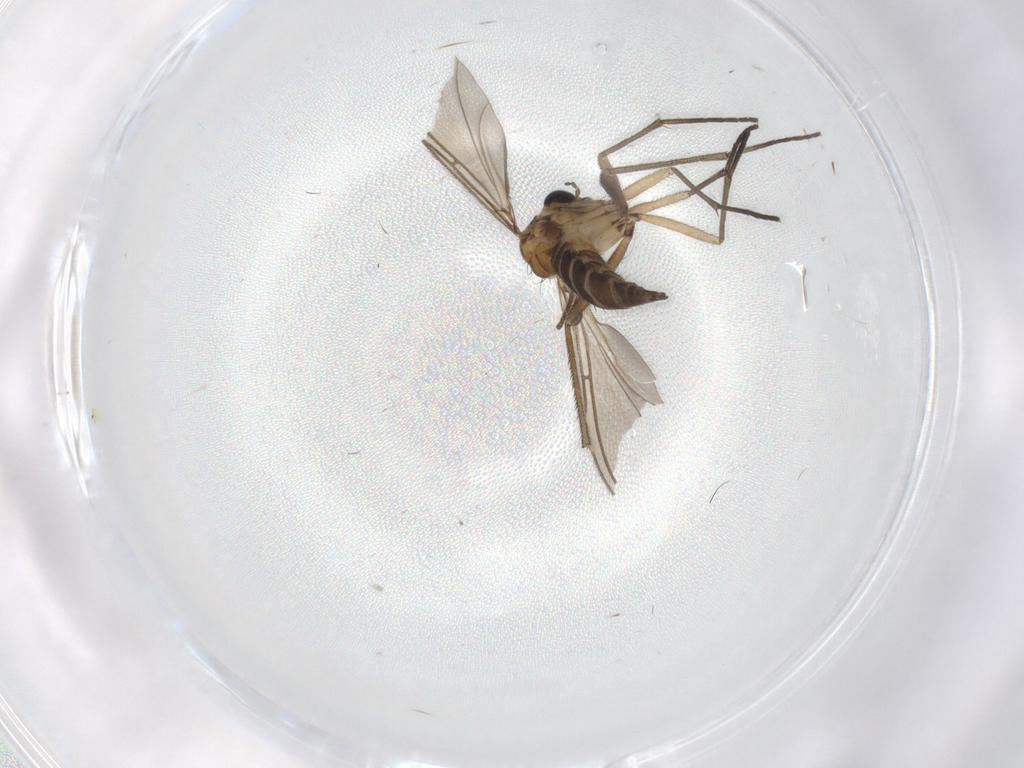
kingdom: Animalia
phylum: Arthropoda
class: Insecta
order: Diptera
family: Sciaridae
